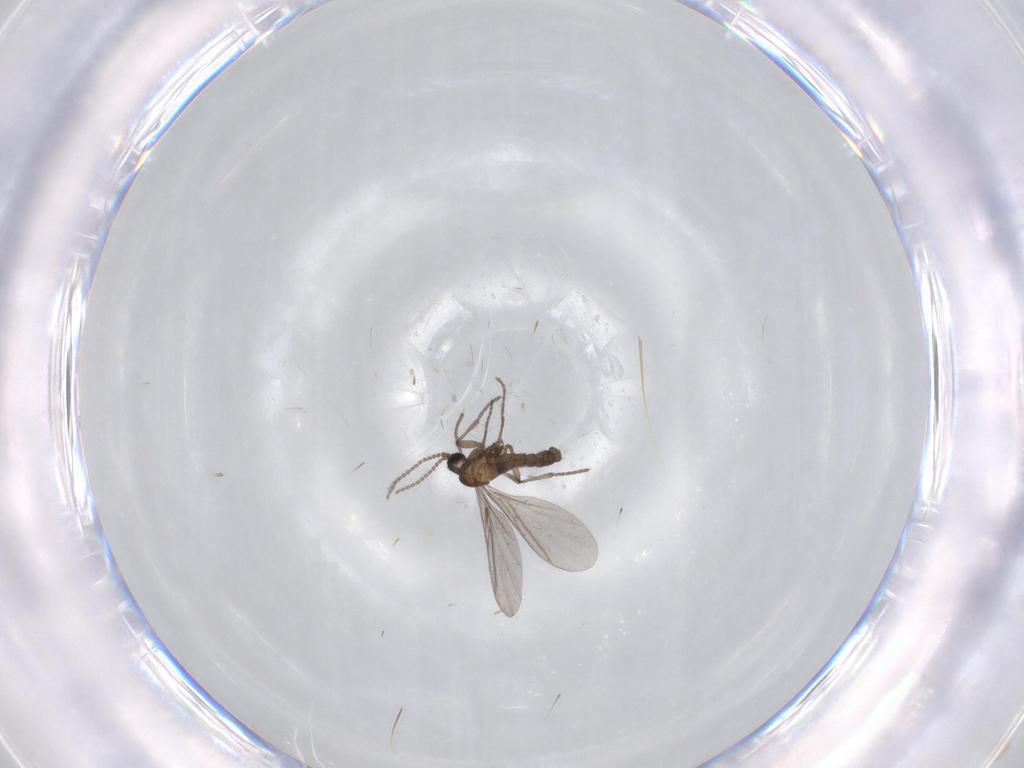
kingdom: Animalia
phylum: Arthropoda
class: Insecta
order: Diptera
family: Sciaridae
